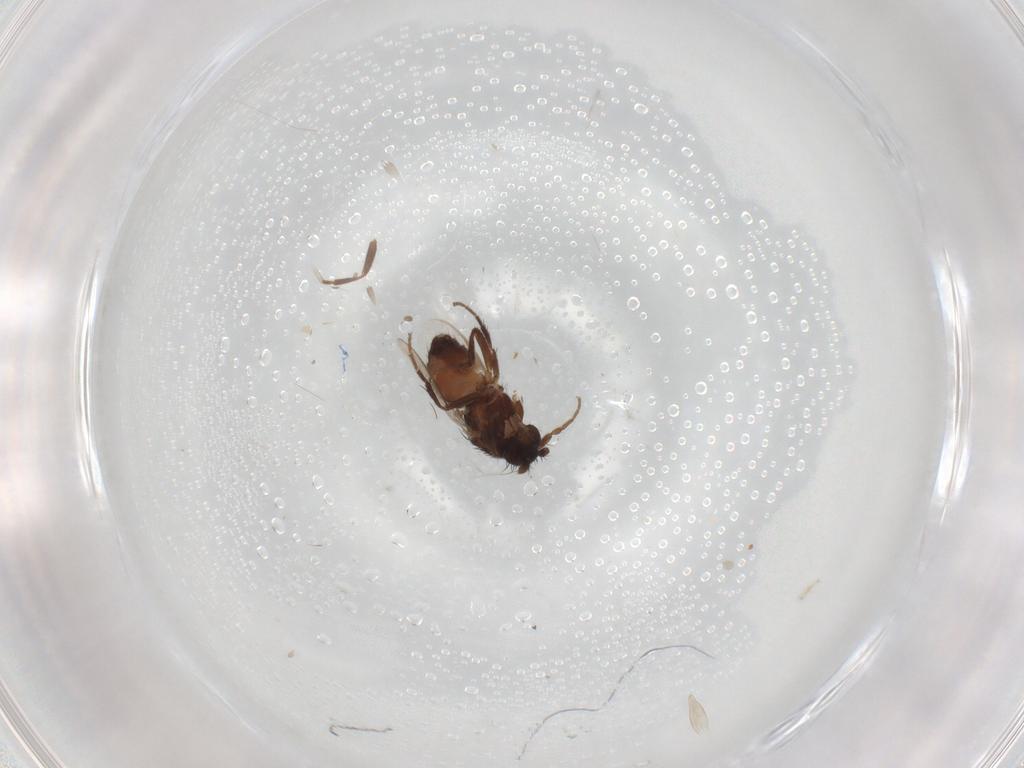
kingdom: Animalia
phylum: Arthropoda
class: Insecta
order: Diptera
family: Sphaeroceridae
